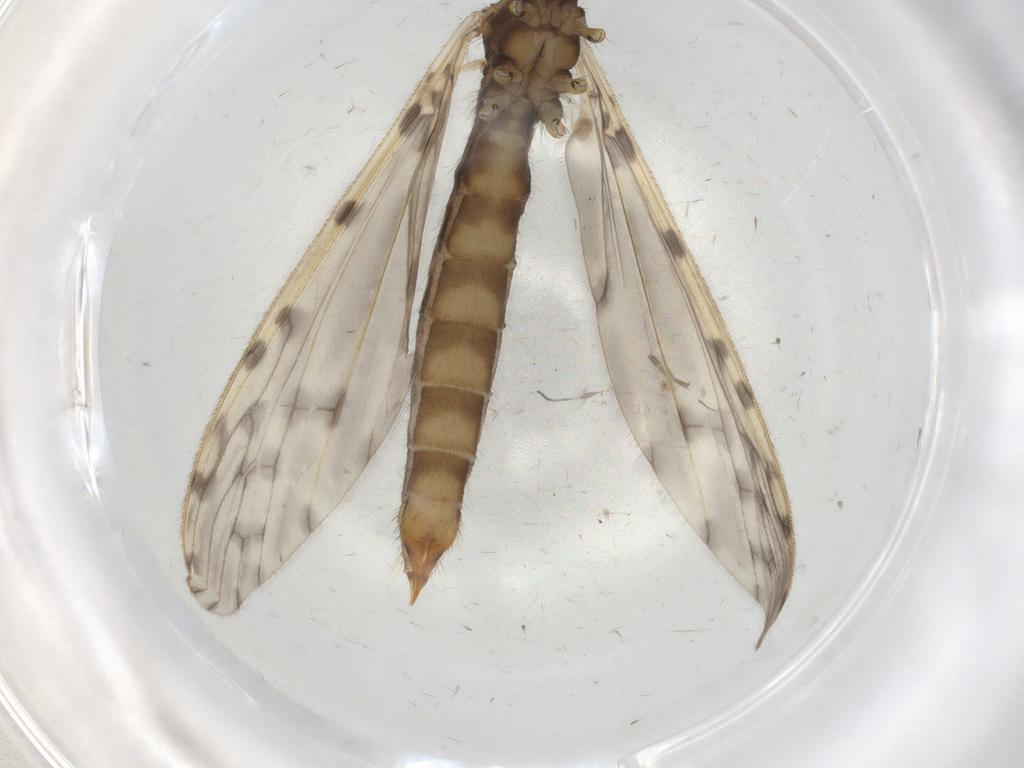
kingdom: Animalia
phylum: Arthropoda
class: Insecta
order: Diptera
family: Limoniidae
